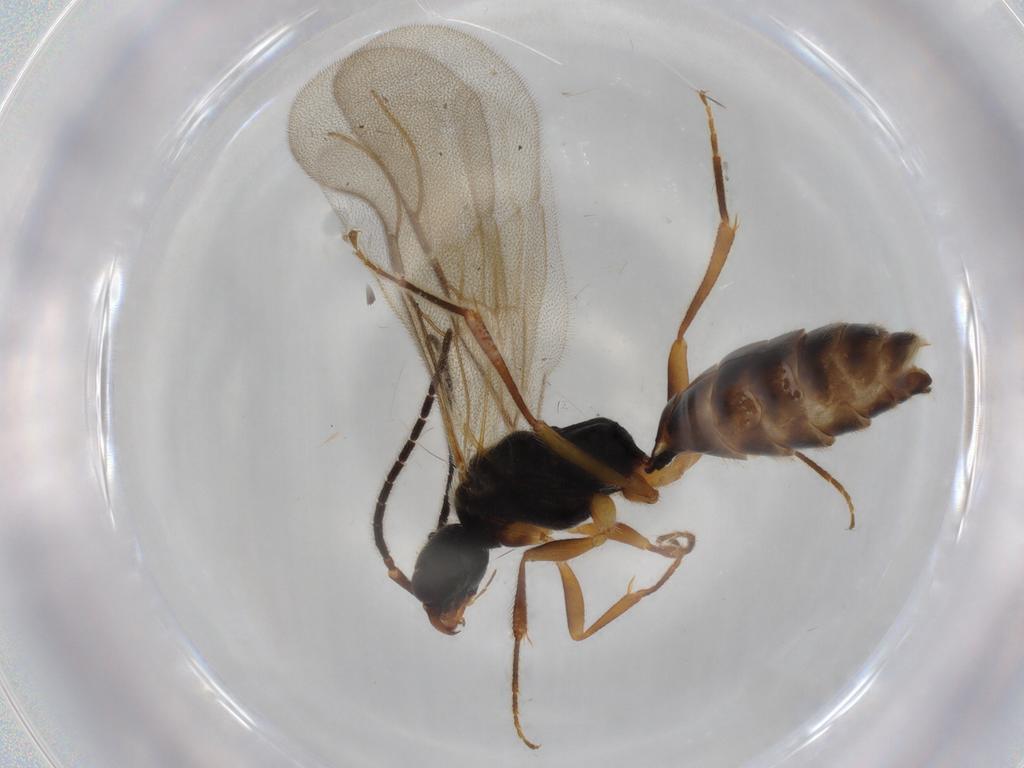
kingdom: Animalia
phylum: Arthropoda
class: Insecta
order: Hymenoptera
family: Bethylidae
